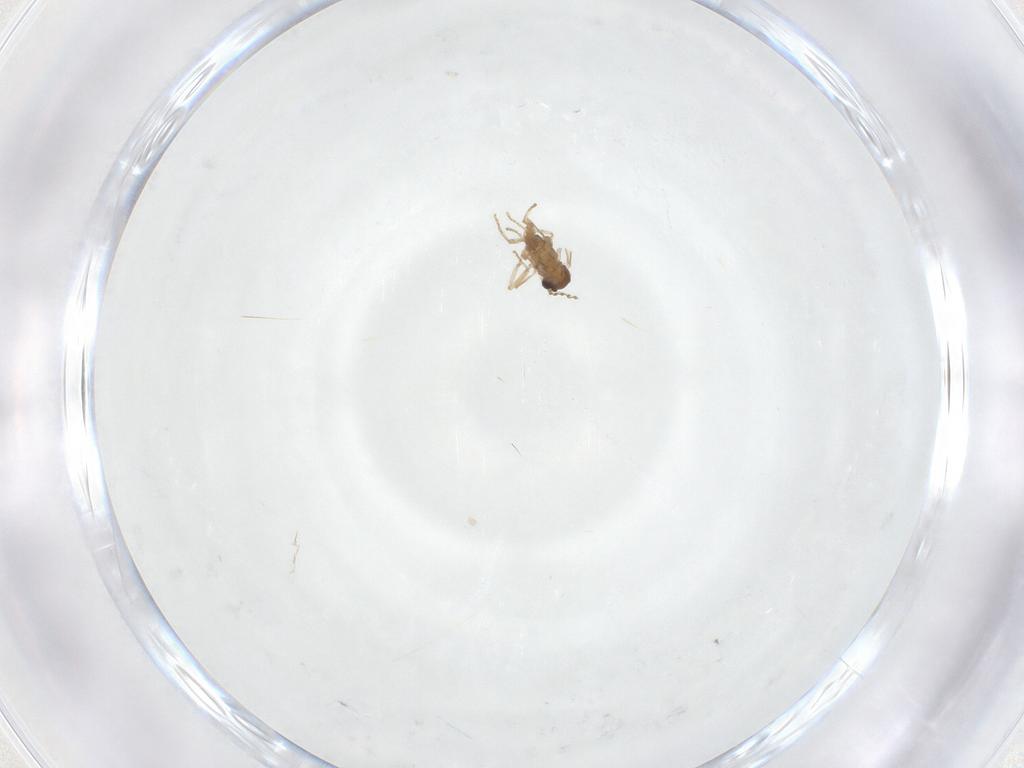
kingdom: Animalia
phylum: Arthropoda
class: Insecta
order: Diptera
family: Cecidomyiidae
